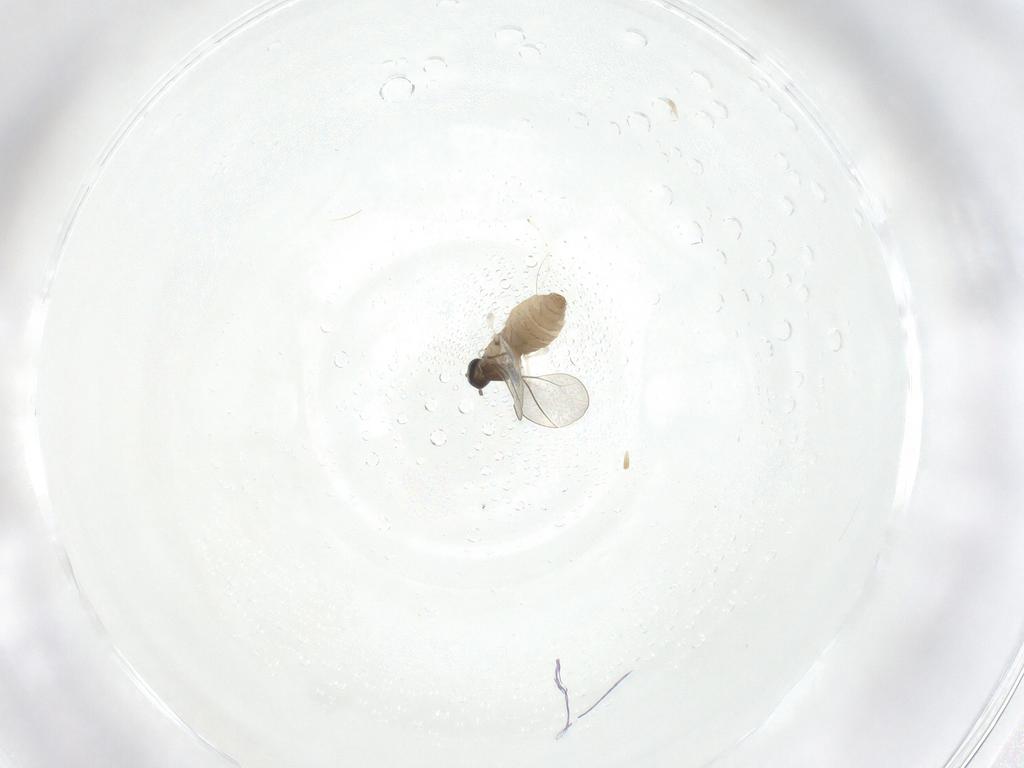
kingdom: Animalia
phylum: Arthropoda
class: Insecta
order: Diptera
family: Cecidomyiidae
